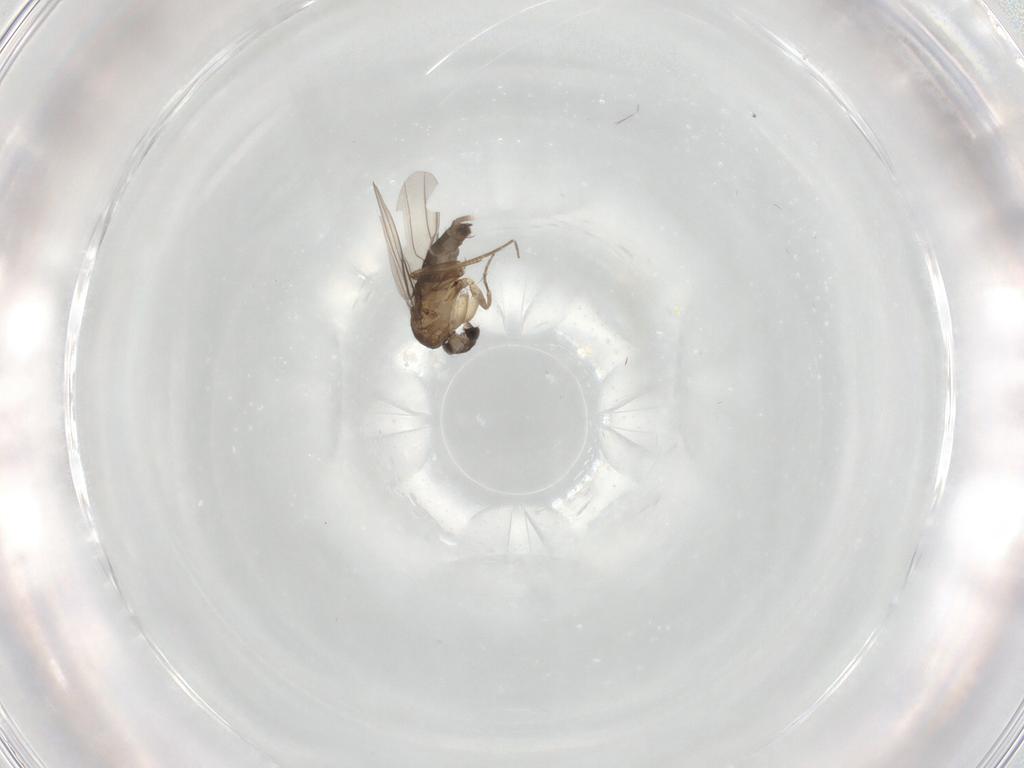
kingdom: Animalia
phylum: Arthropoda
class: Insecta
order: Diptera
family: Phoridae
